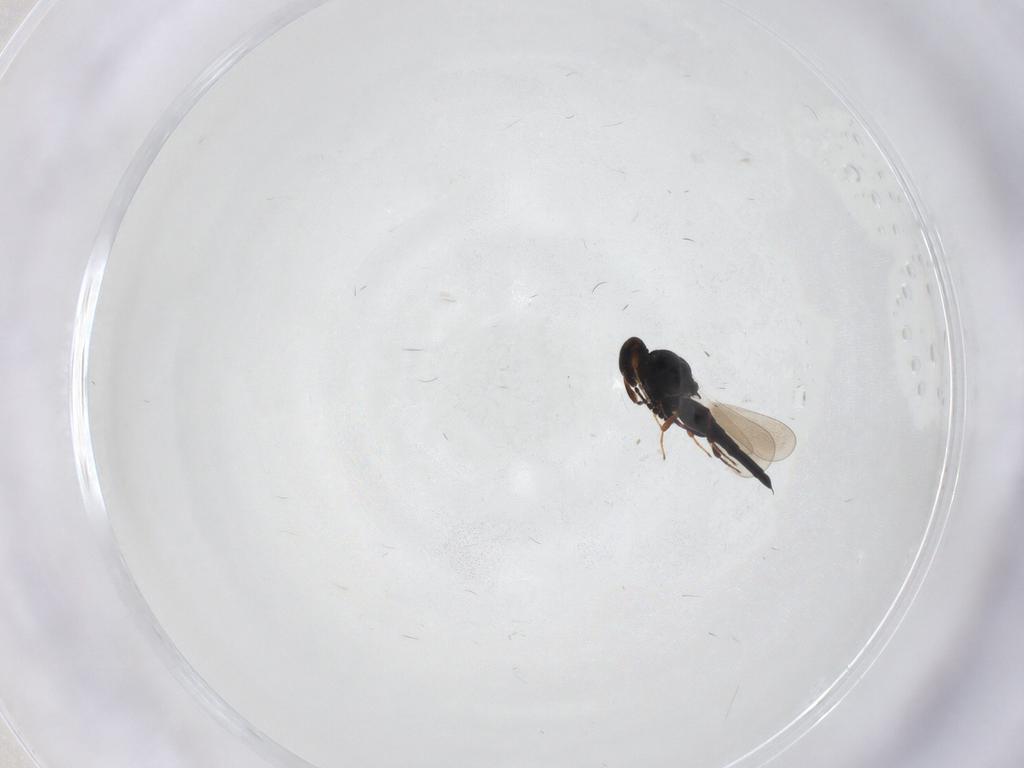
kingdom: Animalia
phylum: Arthropoda
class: Insecta
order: Hymenoptera
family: Platygastridae
